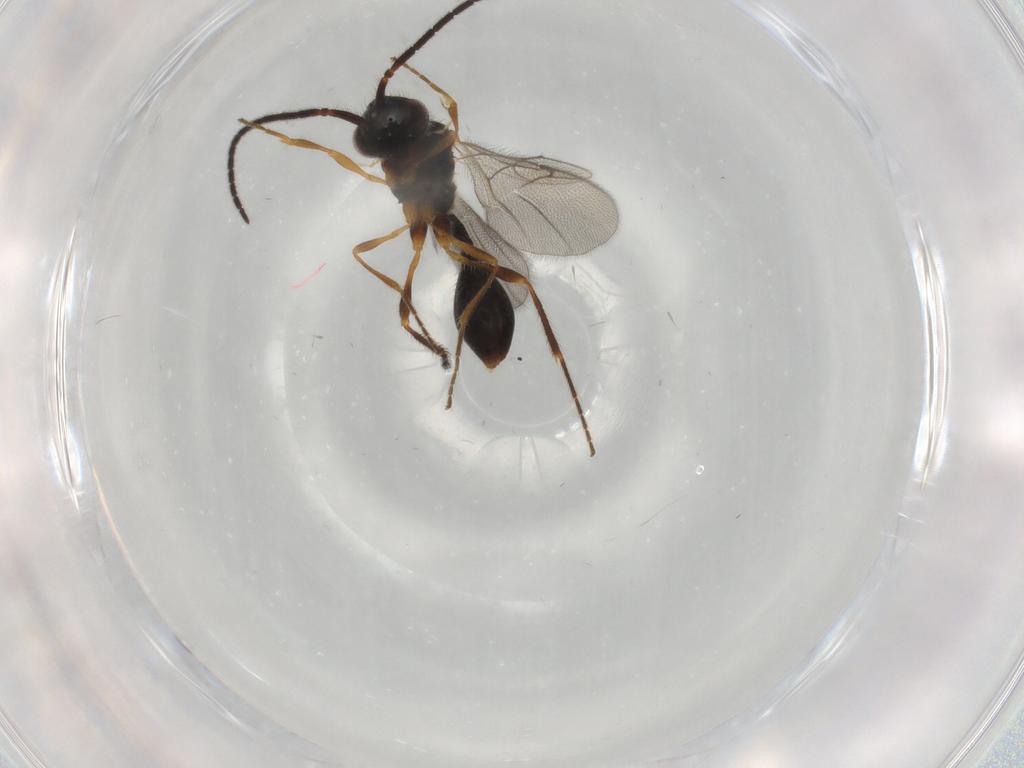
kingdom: Animalia
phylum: Arthropoda
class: Insecta
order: Hymenoptera
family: Diapriidae
